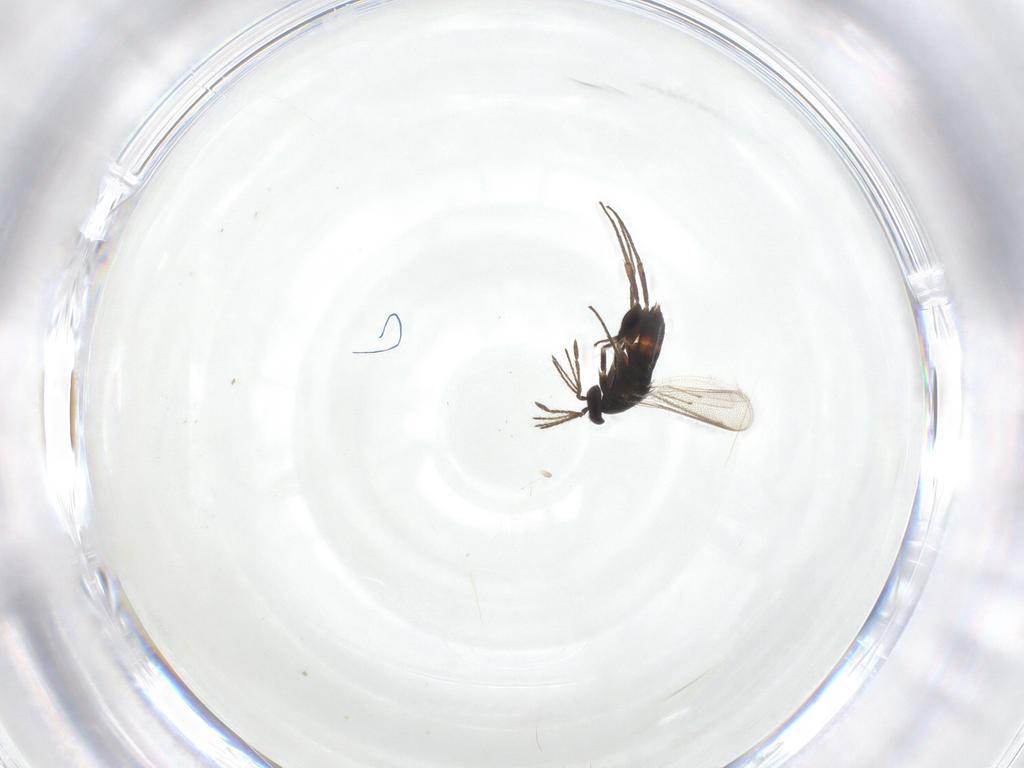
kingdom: Animalia
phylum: Arthropoda
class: Insecta
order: Hymenoptera
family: Eulophidae
